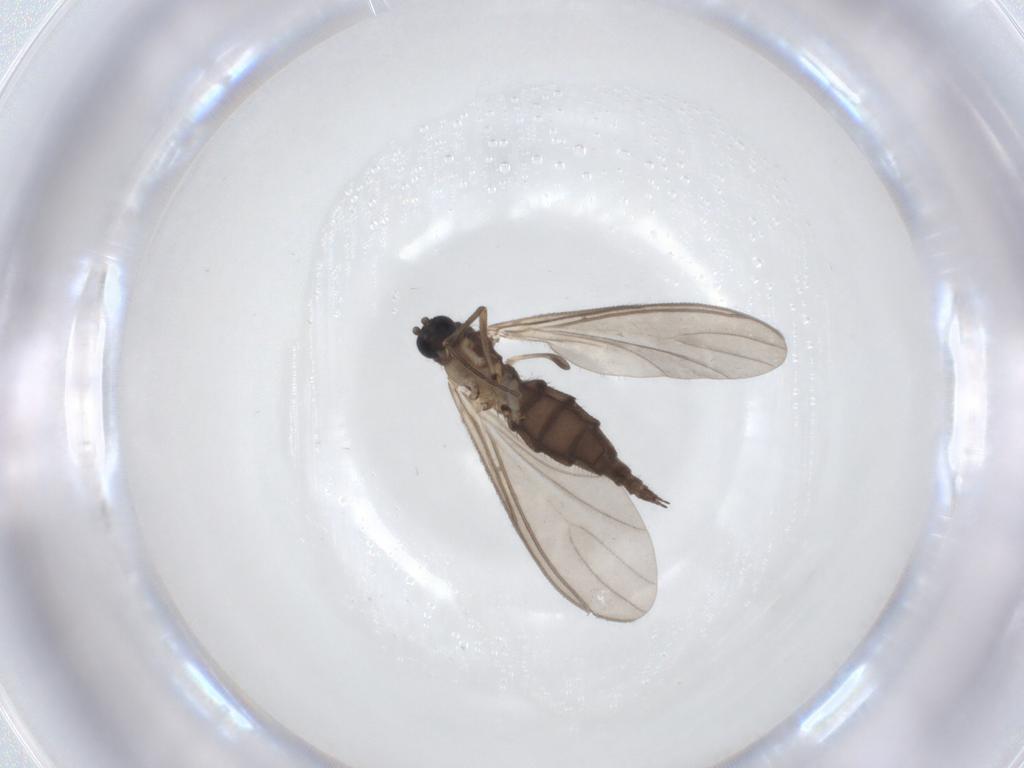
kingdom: Animalia
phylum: Arthropoda
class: Insecta
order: Diptera
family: Sciaridae
